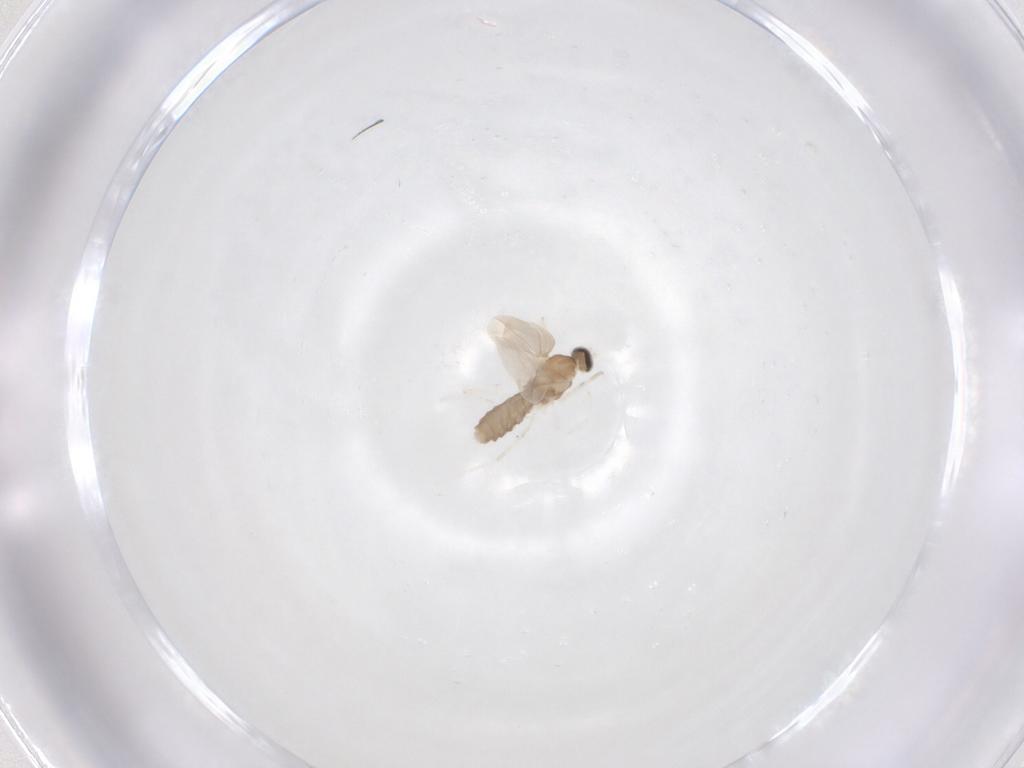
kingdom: Animalia
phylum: Arthropoda
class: Insecta
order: Diptera
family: Cecidomyiidae
